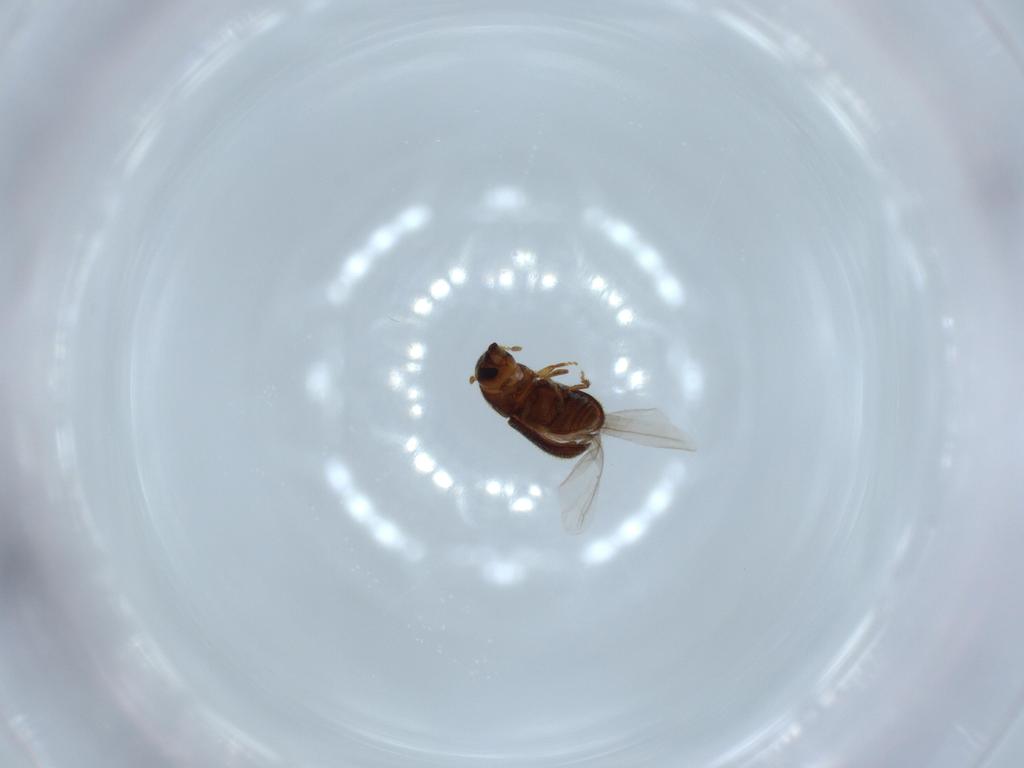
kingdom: Animalia
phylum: Arthropoda
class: Insecta
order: Coleoptera
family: Curculionidae
